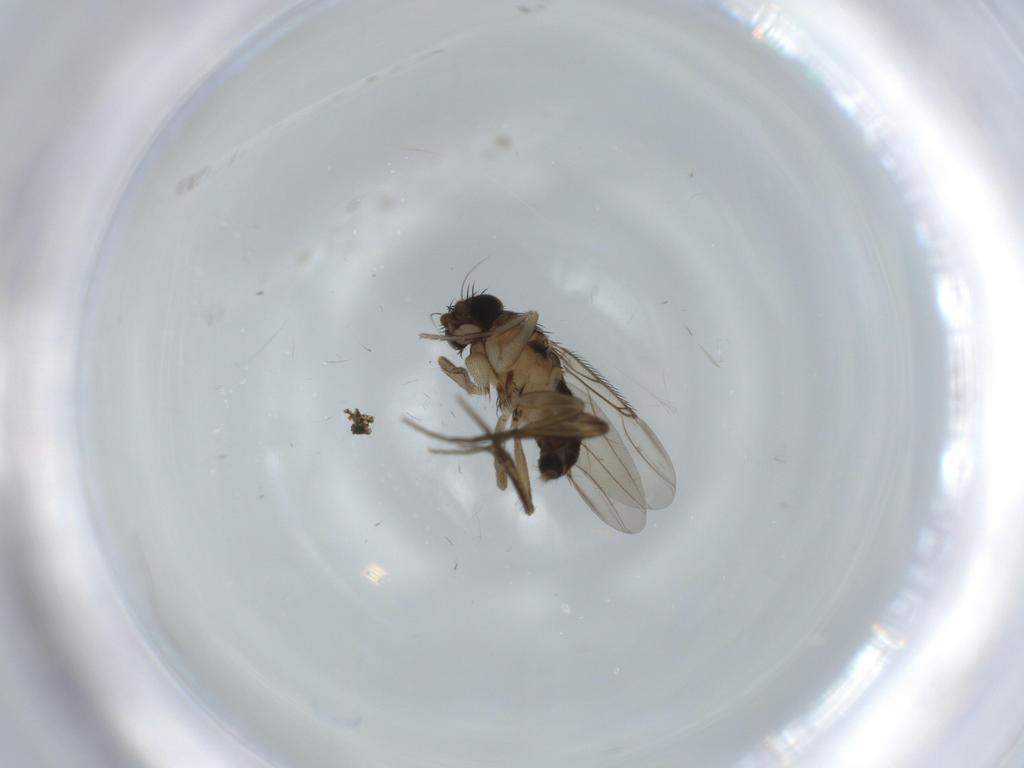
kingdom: Animalia
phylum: Arthropoda
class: Insecta
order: Diptera
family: Phoridae
